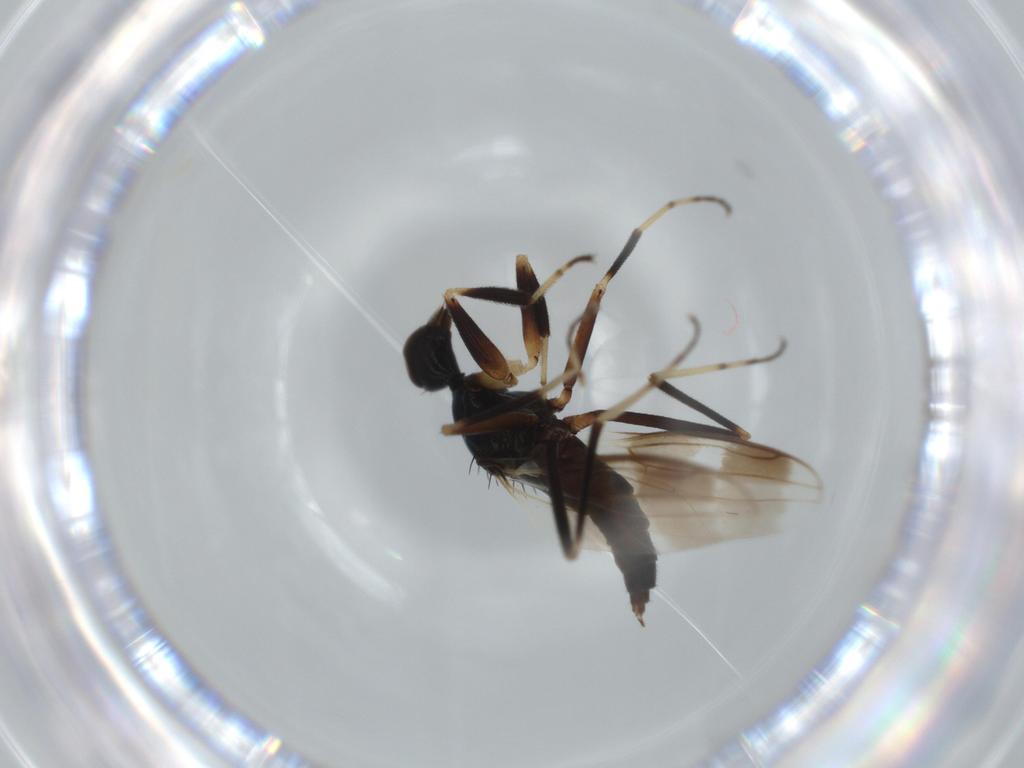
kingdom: Animalia
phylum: Arthropoda
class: Insecta
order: Diptera
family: Hybotidae
